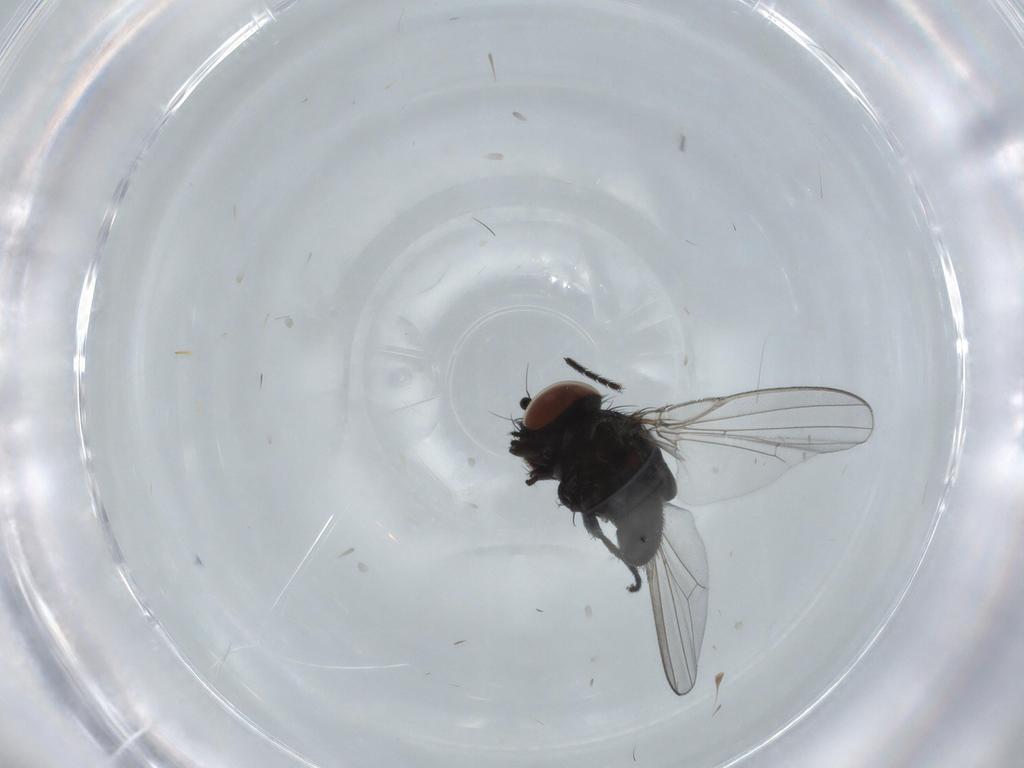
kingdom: Animalia
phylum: Arthropoda
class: Insecta
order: Diptera
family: Milichiidae
